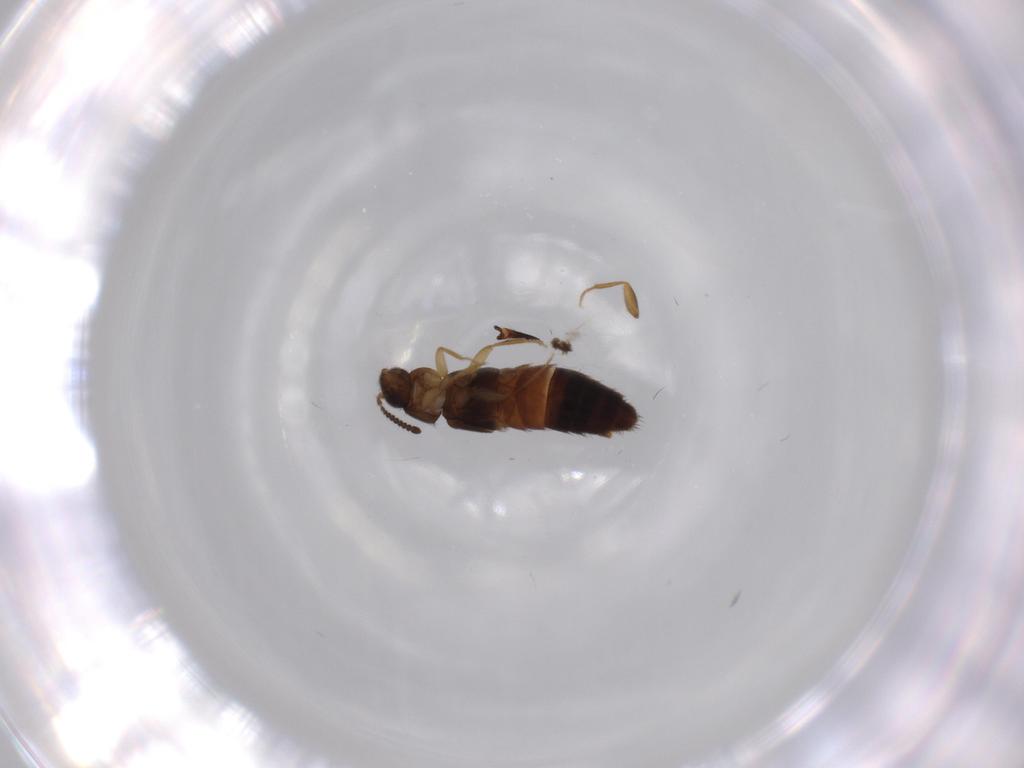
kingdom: Animalia
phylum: Arthropoda
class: Insecta
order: Coleoptera
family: Staphylinidae
